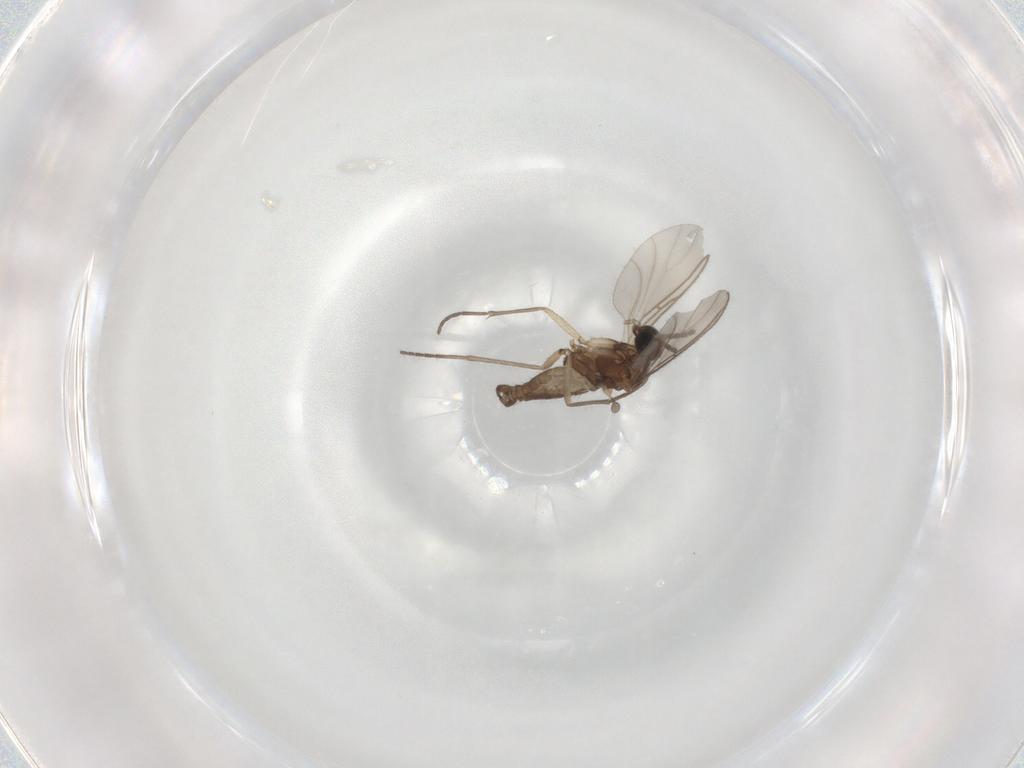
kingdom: Animalia
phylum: Arthropoda
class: Insecta
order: Diptera
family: Sciaridae
